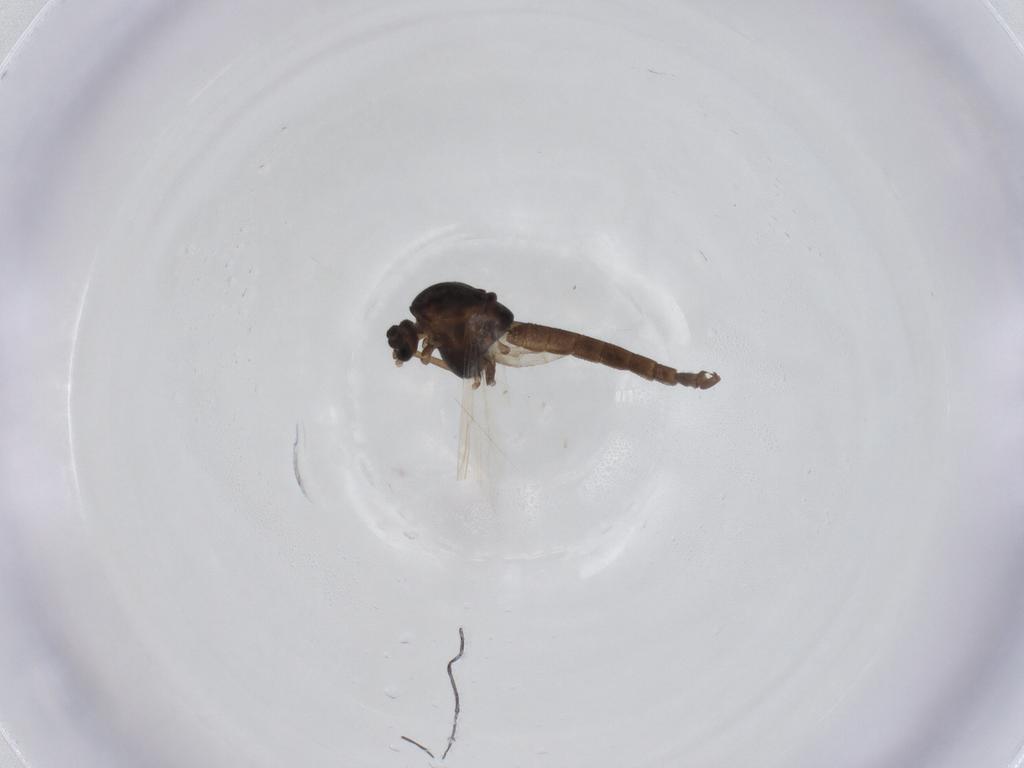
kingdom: Animalia
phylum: Arthropoda
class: Insecta
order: Diptera
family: Chironomidae
